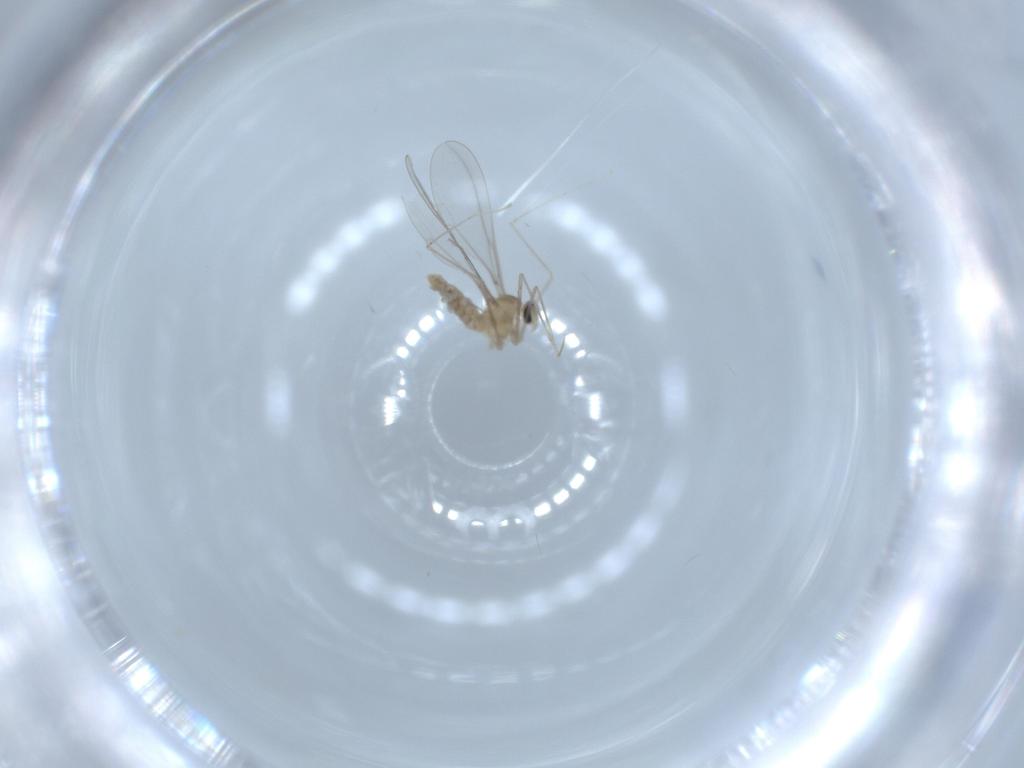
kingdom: Animalia
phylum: Arthropoda
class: Insecta
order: Diptera
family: Cecidomyiidae
